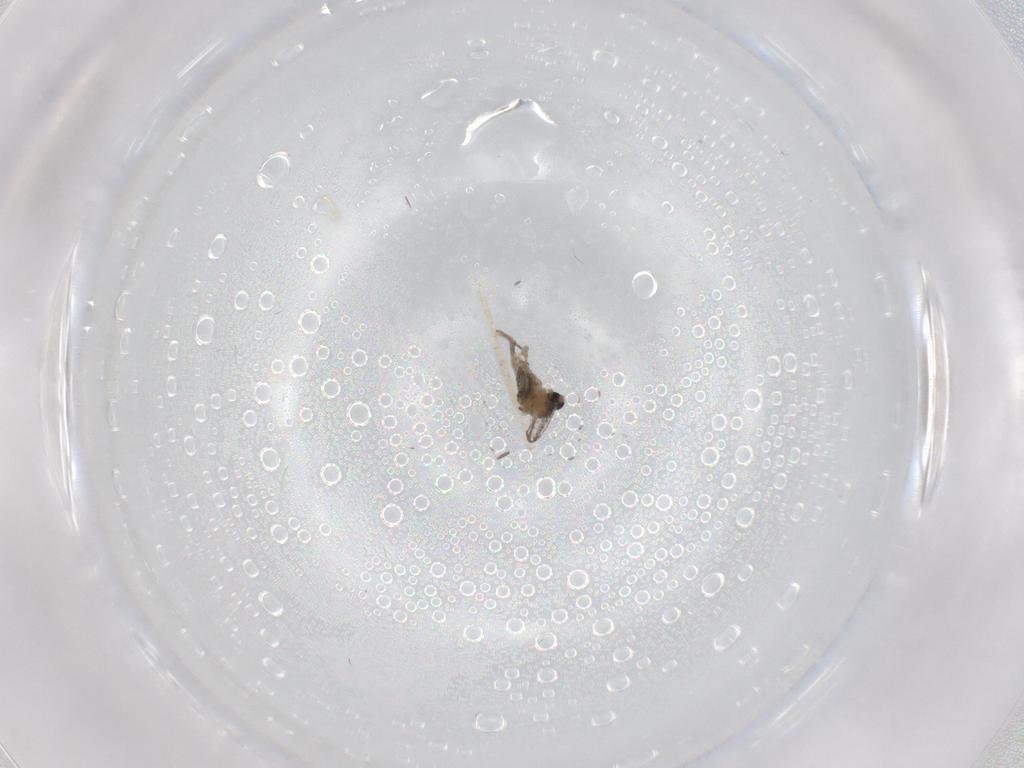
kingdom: Animalia
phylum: Arthropoda
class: Insecta
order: Diptera
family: Cecidomyiidae
